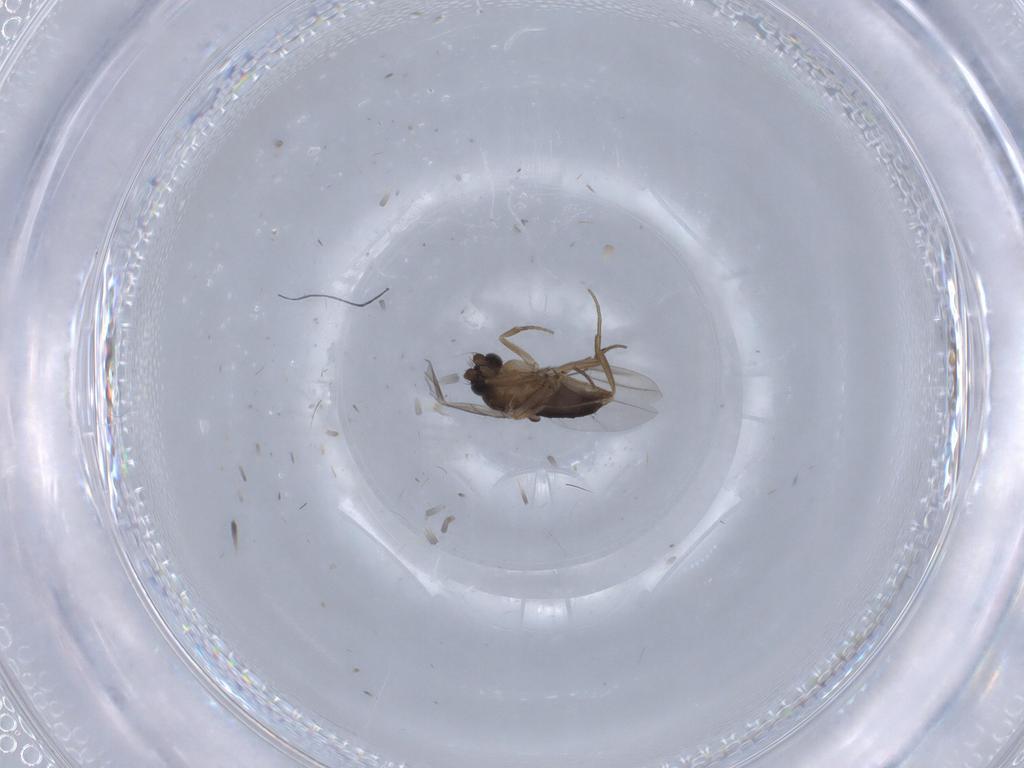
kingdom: Animalia
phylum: Arthropoda
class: Insecta
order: Diptera
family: Phoridae
